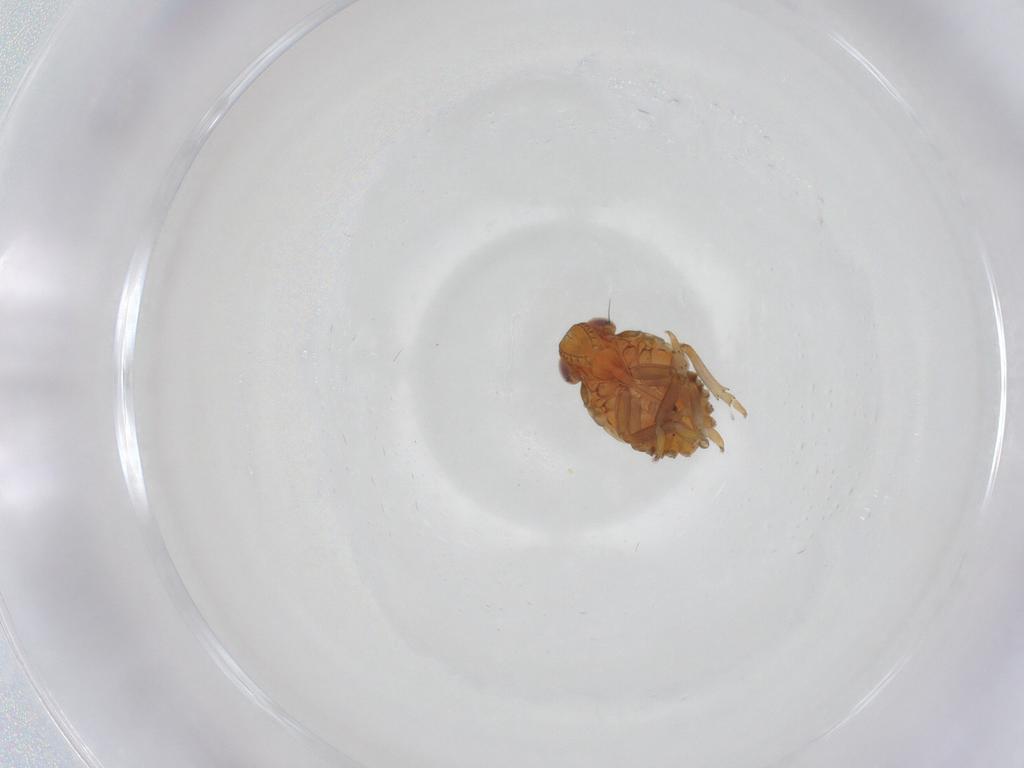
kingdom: Animalia
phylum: Arthropoda
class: Insecta
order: Hemiptera
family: Issidae
